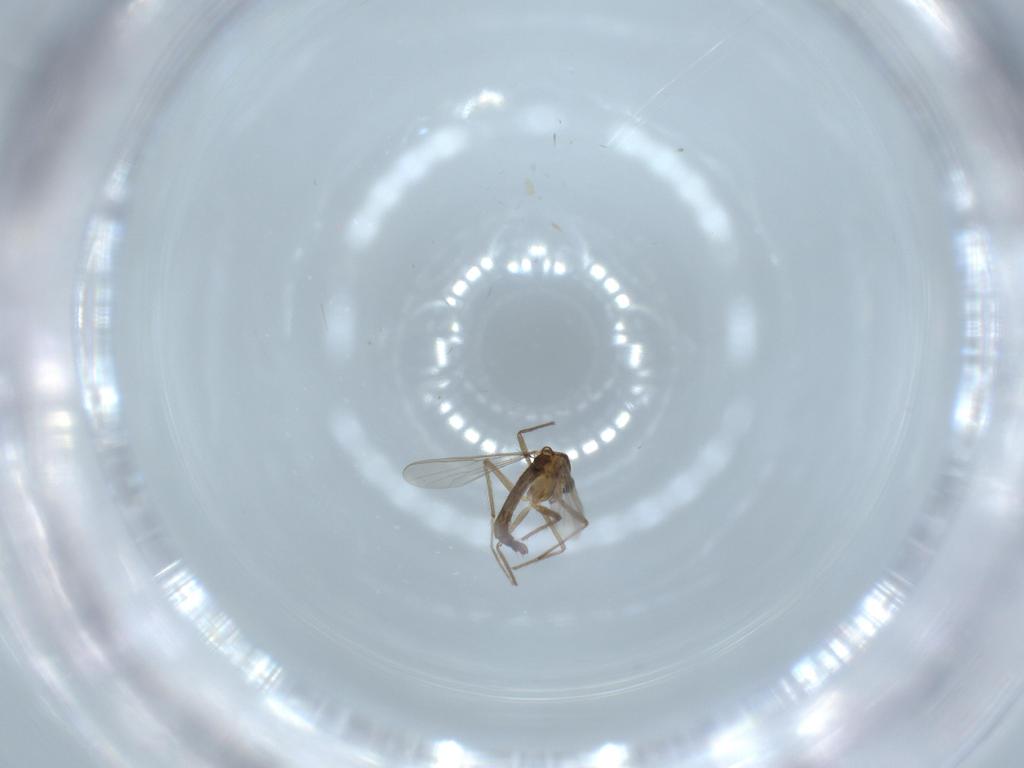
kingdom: Animalia
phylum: Arthropoda
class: Insecta
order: Diptera
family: Chironomidae
